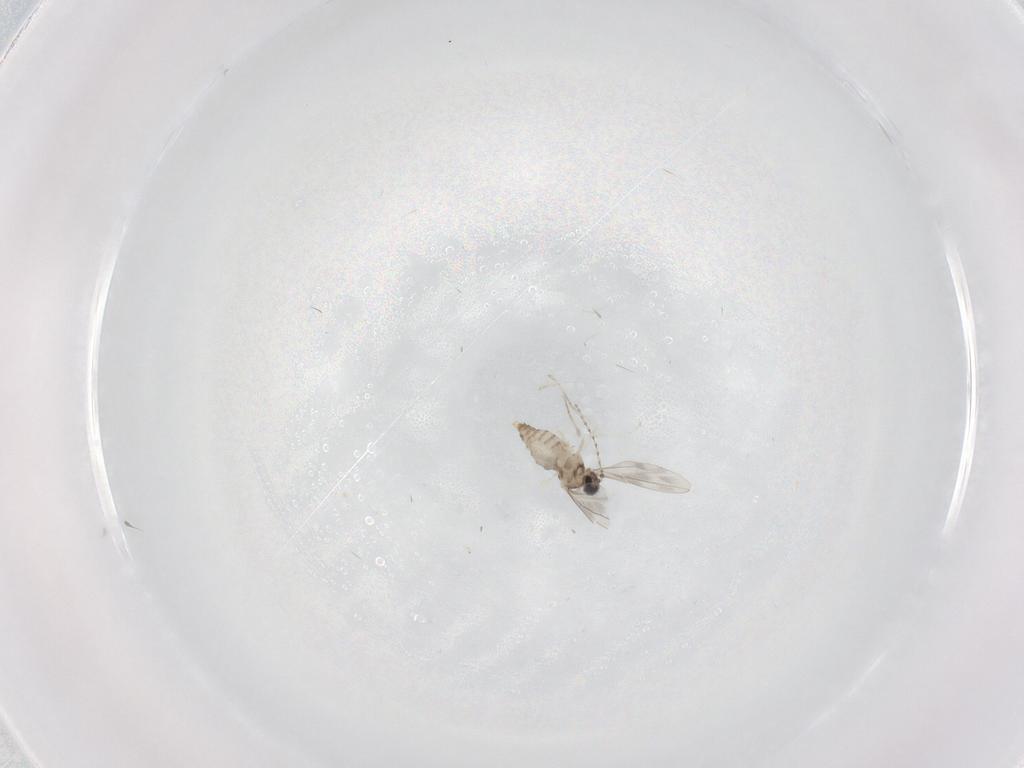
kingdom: Animalia
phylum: Arthropoda
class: Insecta
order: Diptera
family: Cecidomyiidae
